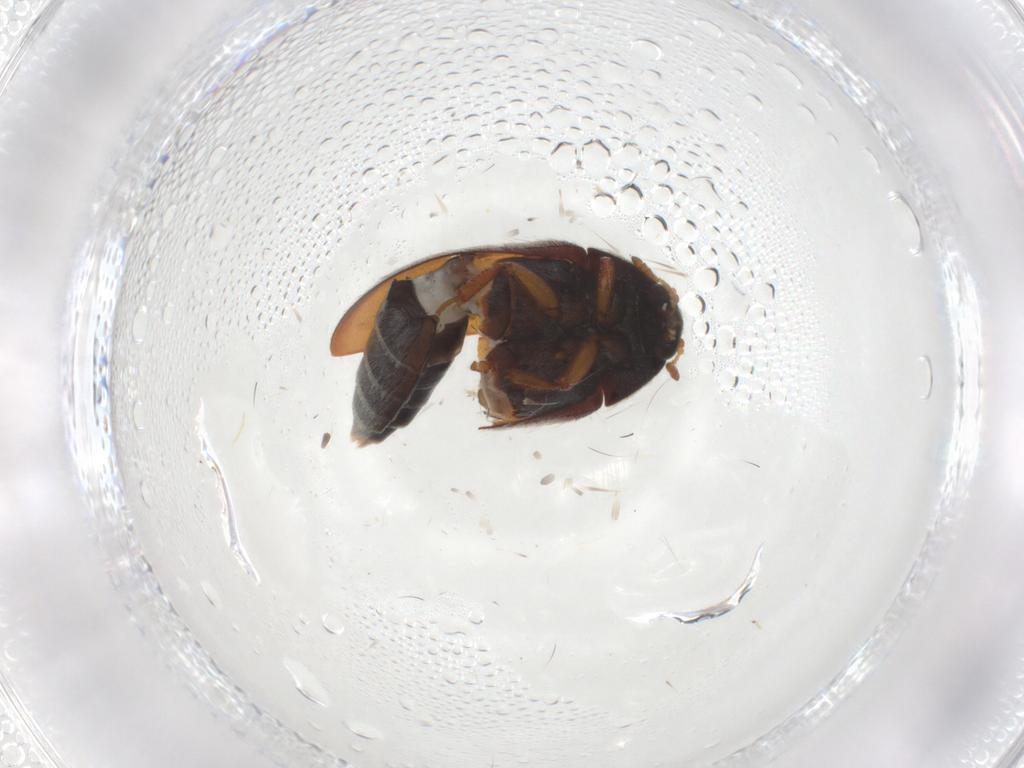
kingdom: Animalia
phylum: Arthropoda
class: Insecta
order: Coleoptera
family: Dermestidae
